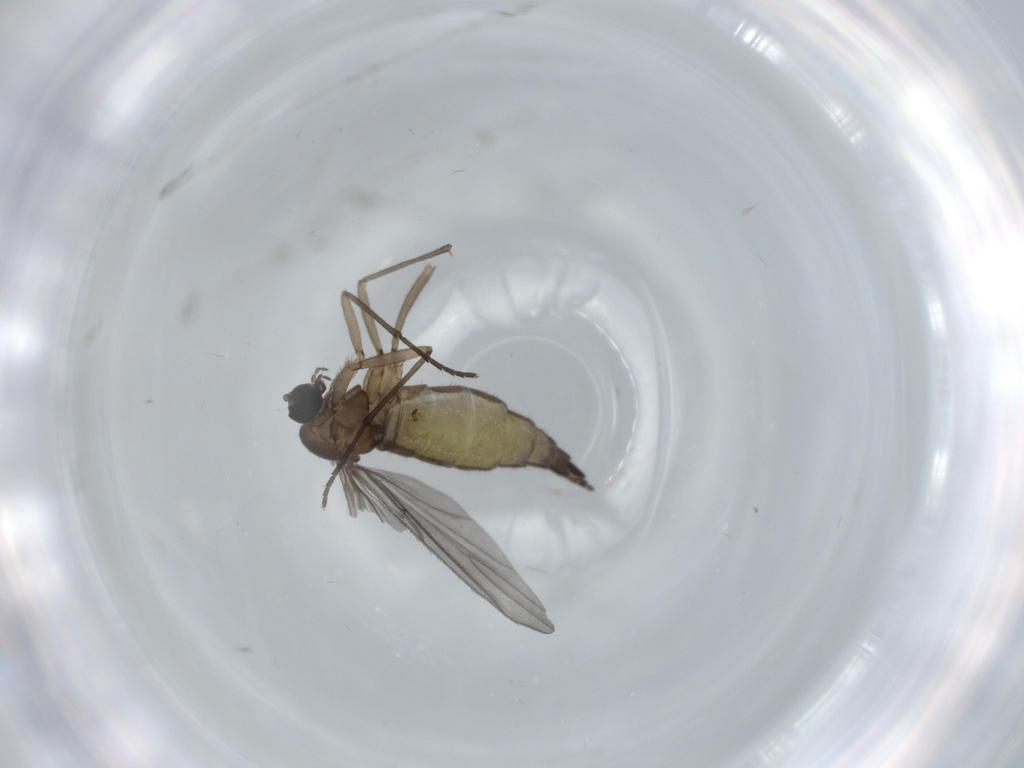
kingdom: Animalia
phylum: Arthropoda
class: Insecta
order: Diptera
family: Sciaridae
